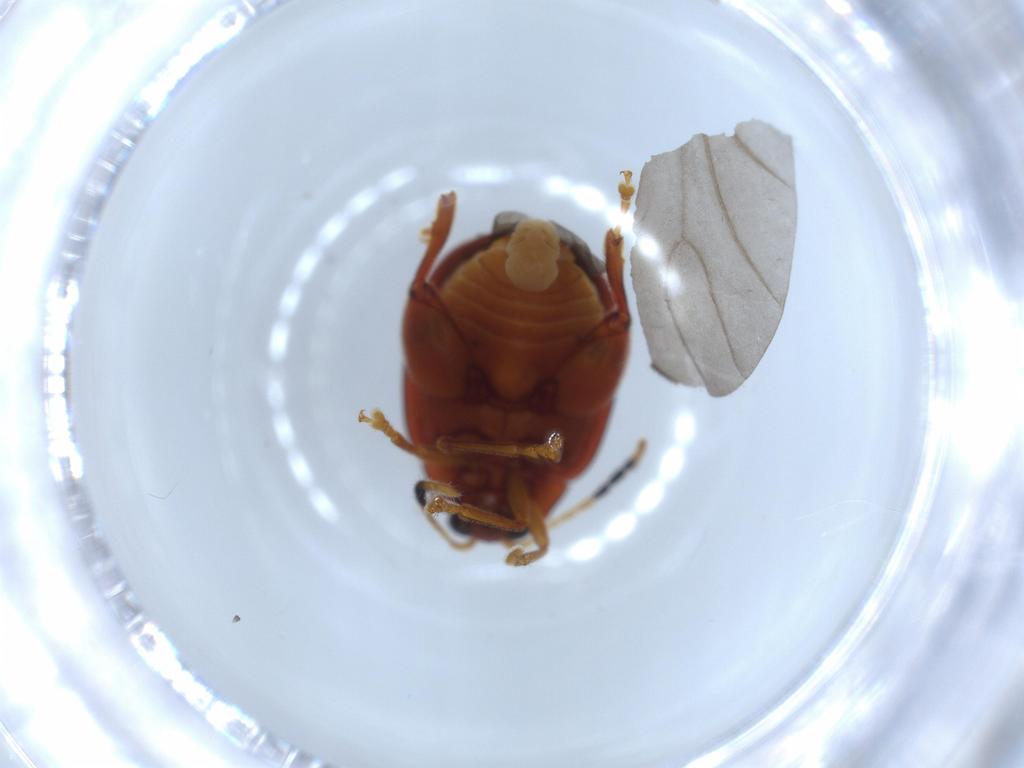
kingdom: Animalia
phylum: Arthropoda
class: Insecta
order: Coleoptera
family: Chrysomelidae
